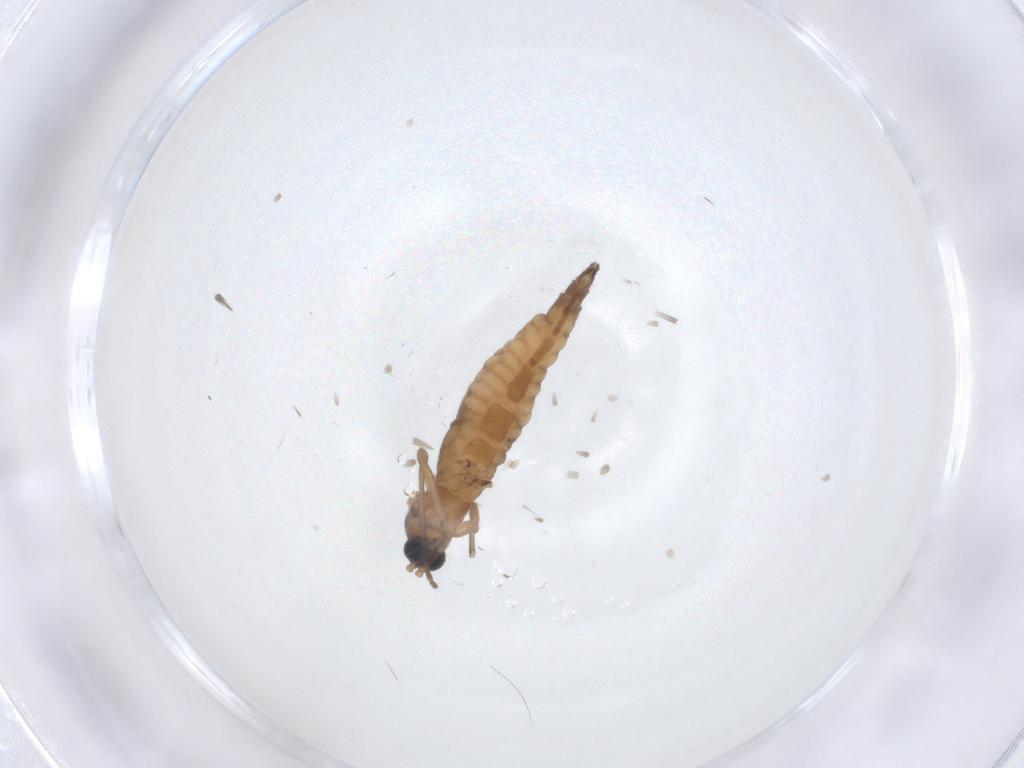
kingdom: Animalia
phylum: Arthropoda
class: Insecta
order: Diptera
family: Sciaridae
